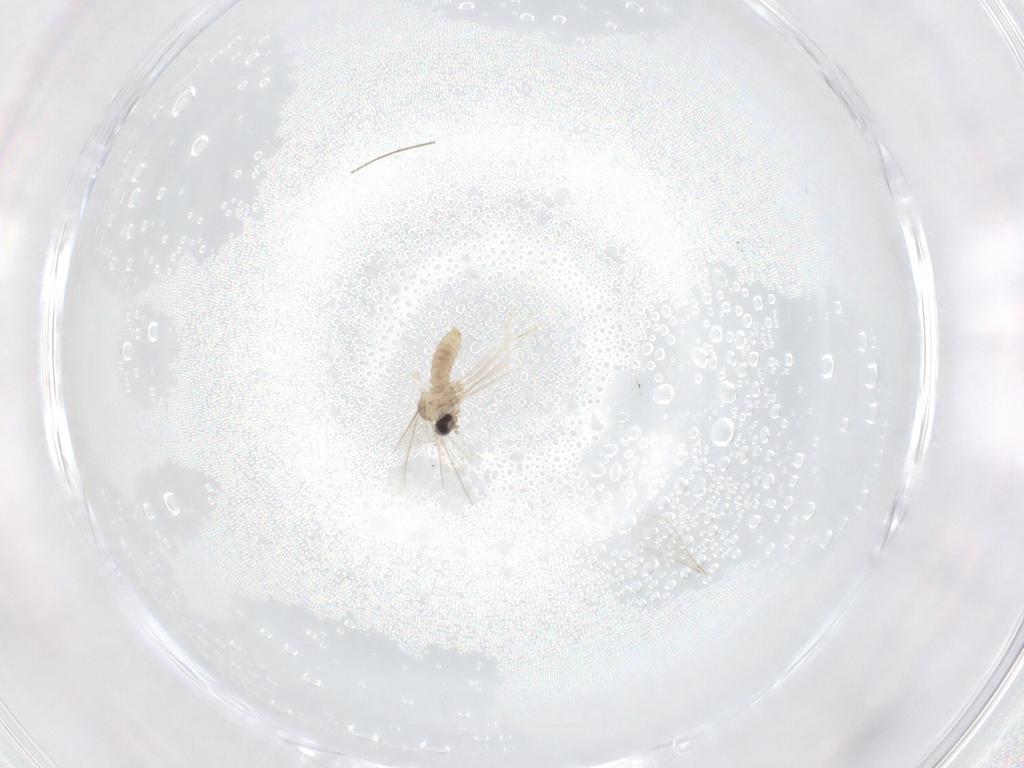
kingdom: Animalia
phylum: Arthropoda
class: Insecta
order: Diptera
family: Cecidomyiidae
